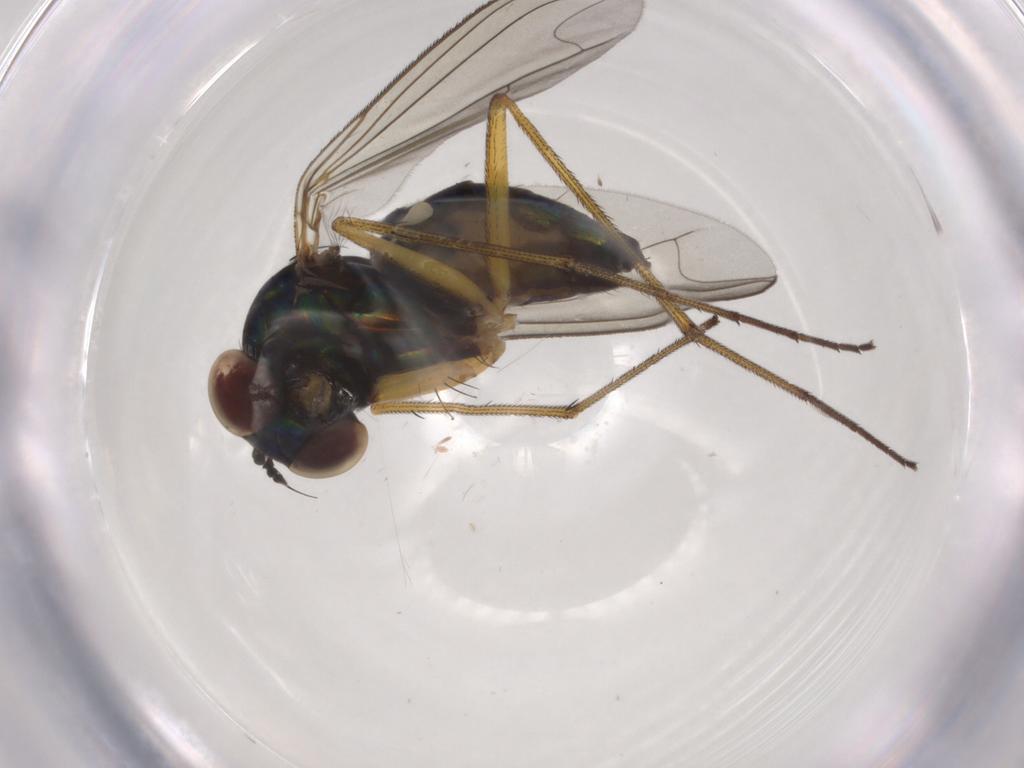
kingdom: Animalia
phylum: Arthropoda
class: Insecta
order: Diptera
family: Dolichopodidae
